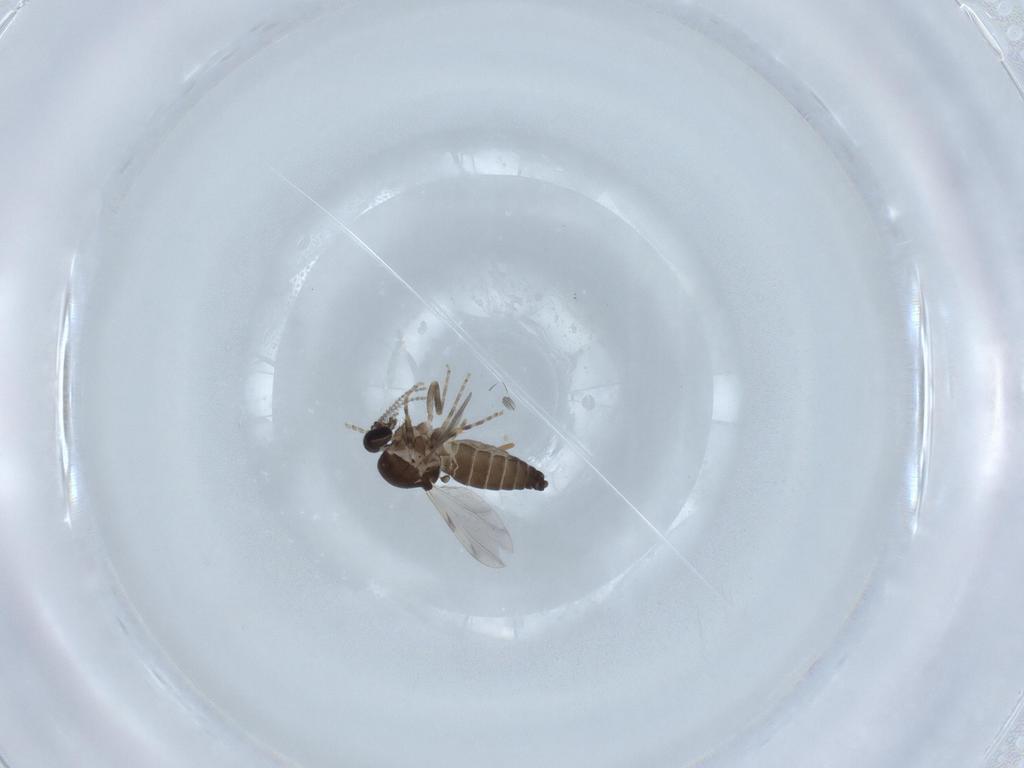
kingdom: Animalia
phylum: Arthropoda
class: Insecta
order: Diptera
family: Ceratopogonidae
